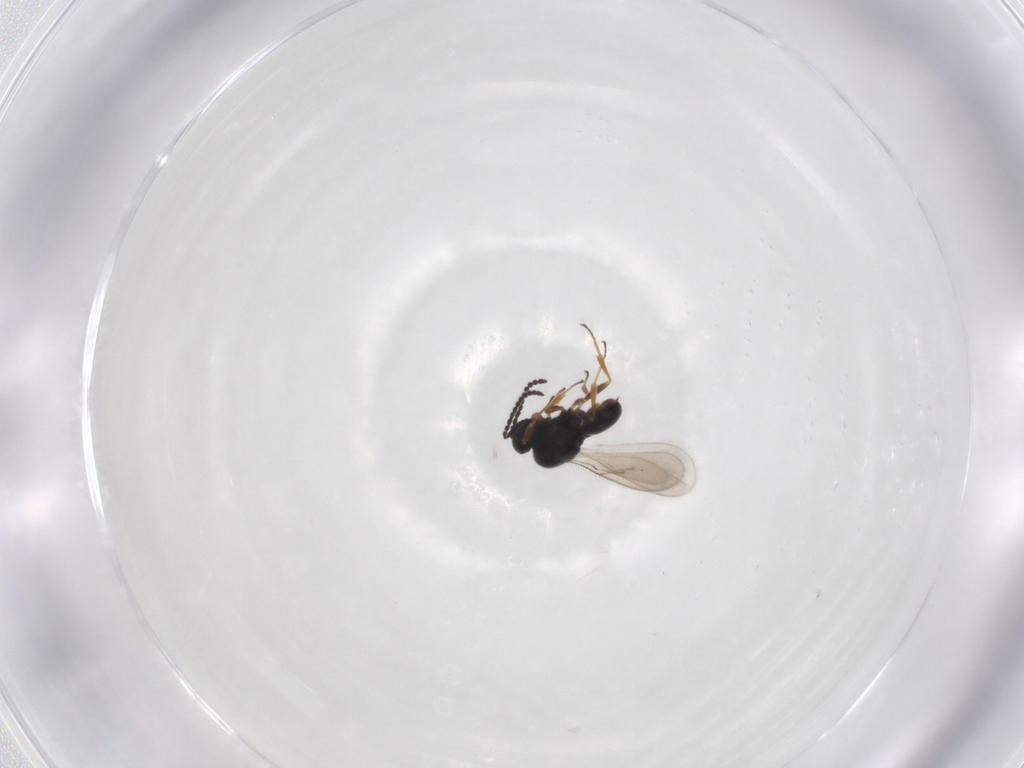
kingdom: Animalia
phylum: Arthropoda
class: Insecta
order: Hymenoptera
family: Scelionidae
